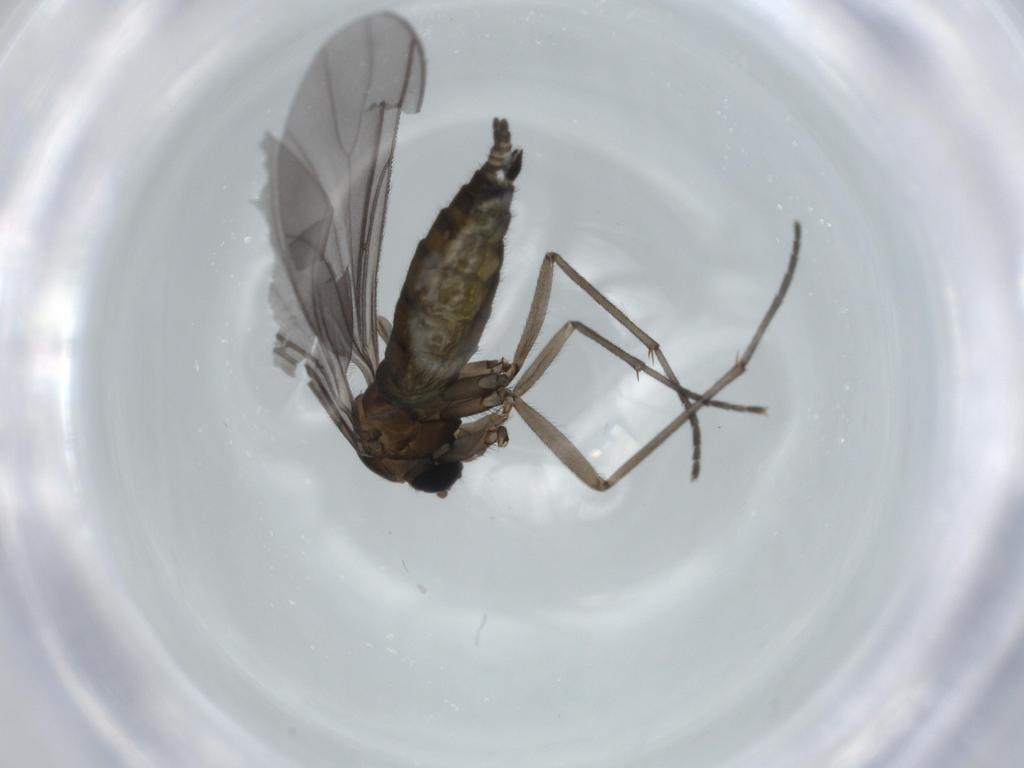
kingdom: Animalia
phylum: Arthropoda
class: Insecta
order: Diptera
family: Sciaridae
